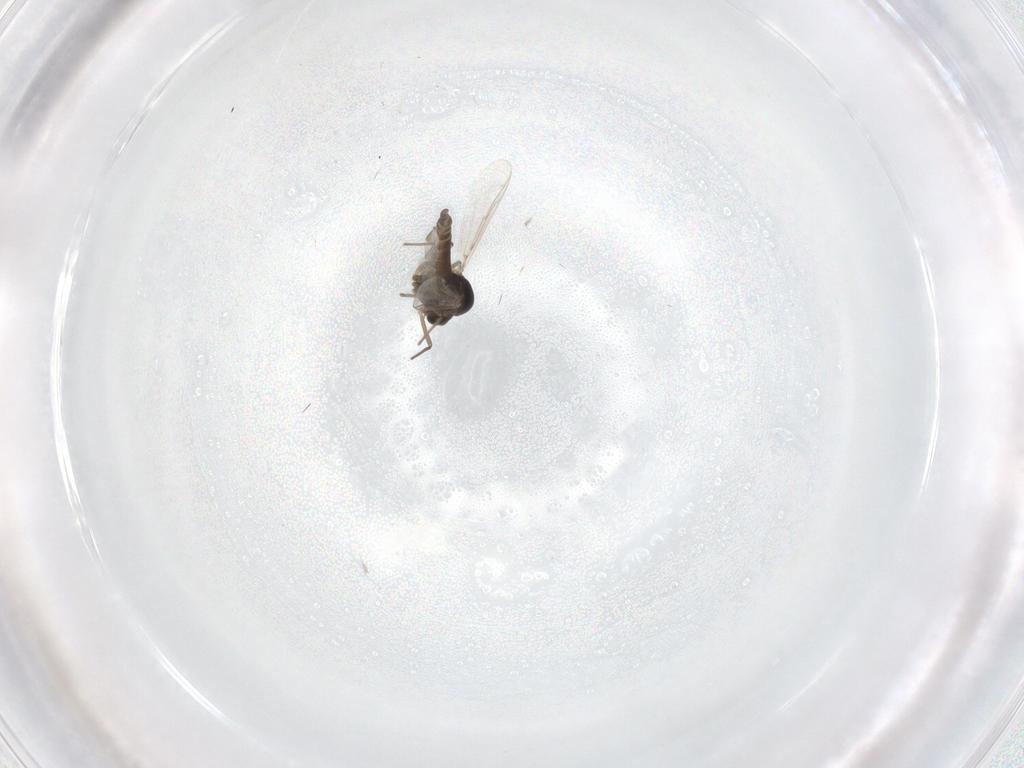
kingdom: Animalia
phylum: Arthropoda
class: Insecta
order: Diptera
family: Chironomidae
